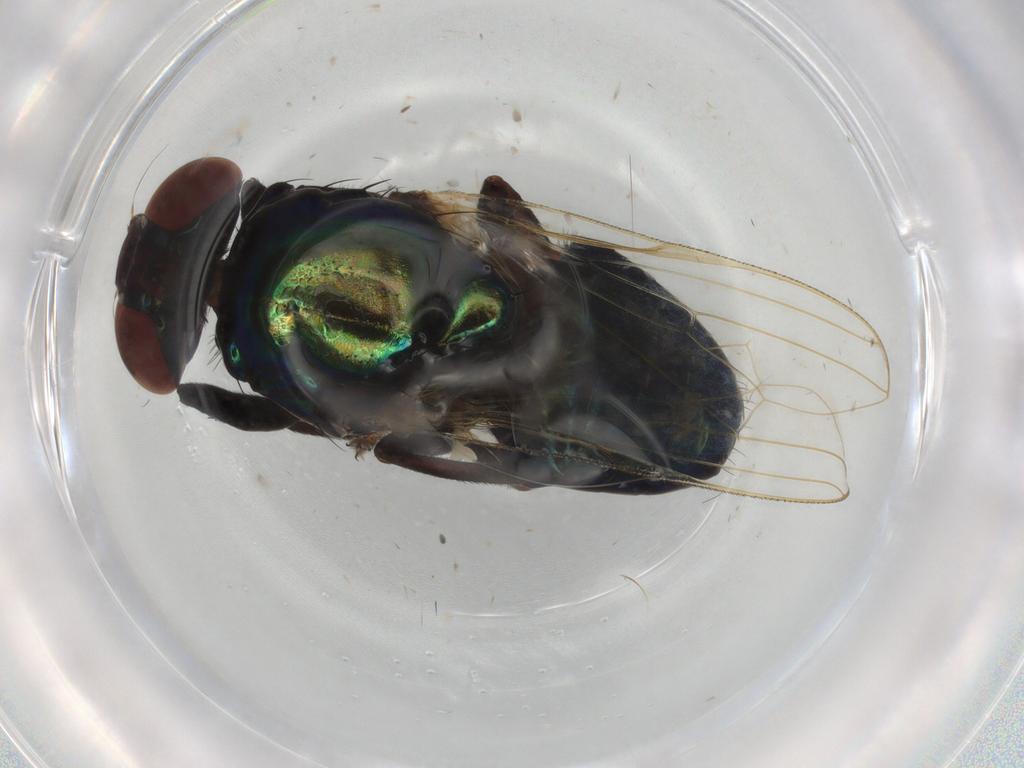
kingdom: Animalia
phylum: Arthropoda
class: Insecta
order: Diptera
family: Ulidiidae
